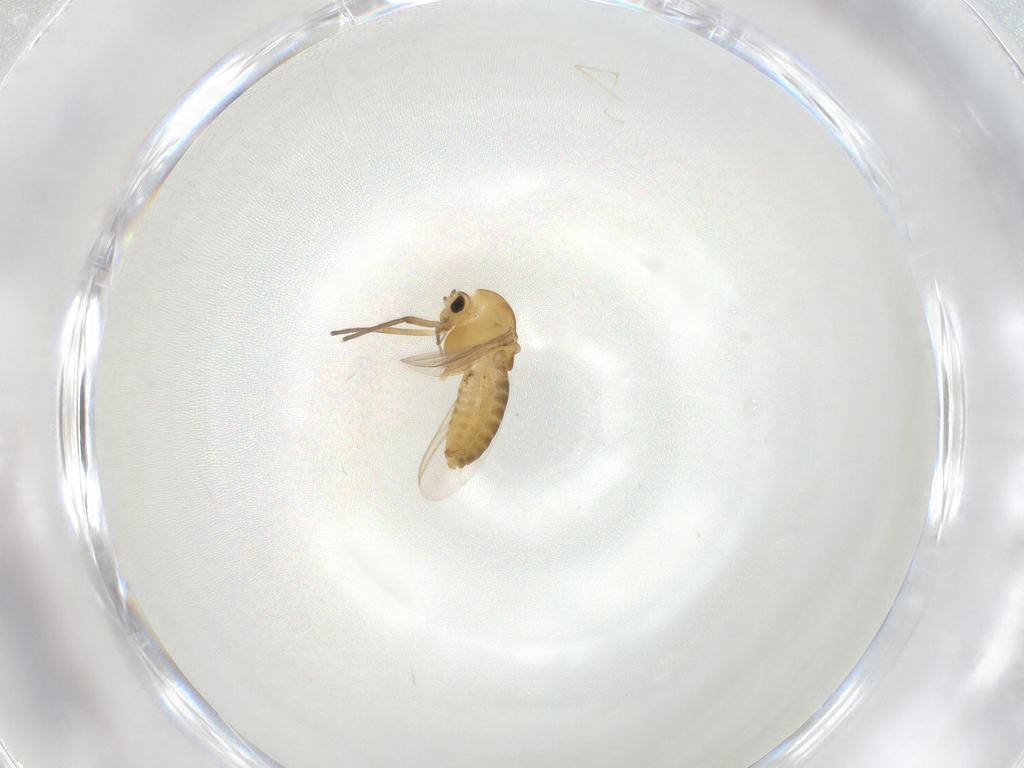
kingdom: Animalia
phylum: Arthropoda
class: Insecta
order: Diptera
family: Chironomidae
